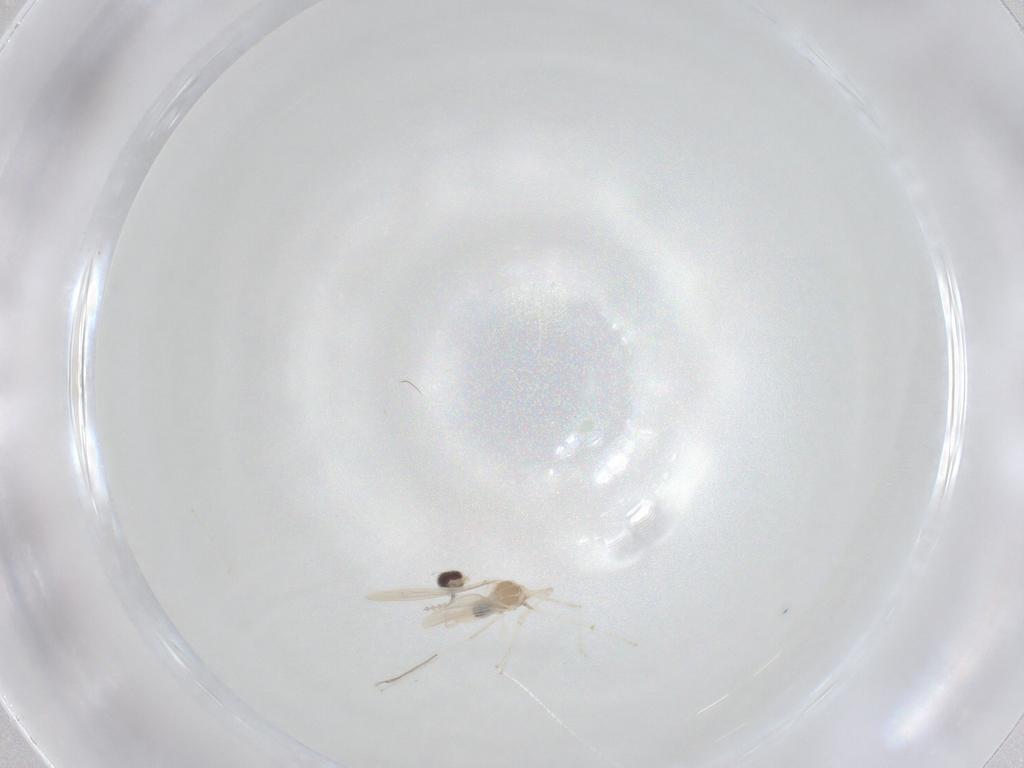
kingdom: Animalia
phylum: Arthropoda
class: Insecta
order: Diptera
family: Cecidomyiidae
